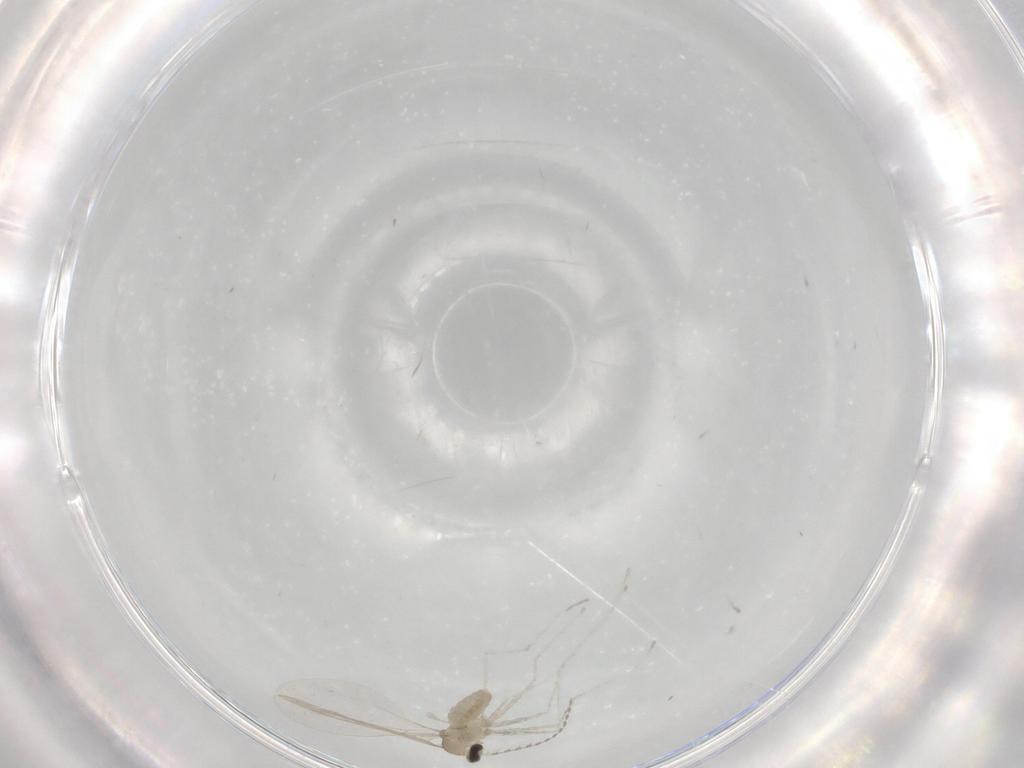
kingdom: Animalia
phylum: Arthropoda
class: Insecta
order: Diptera
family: Cecidomyiidae
